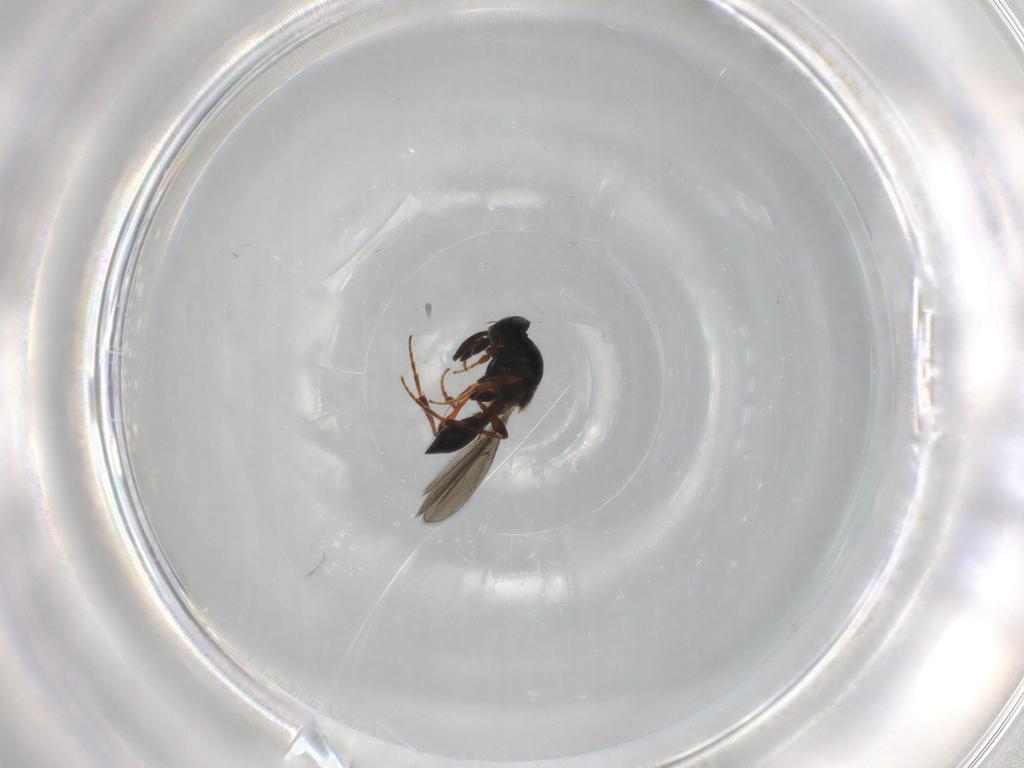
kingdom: Animalia
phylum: Arthropoda
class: Insecta
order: Hymenoptera
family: Platygastridae
